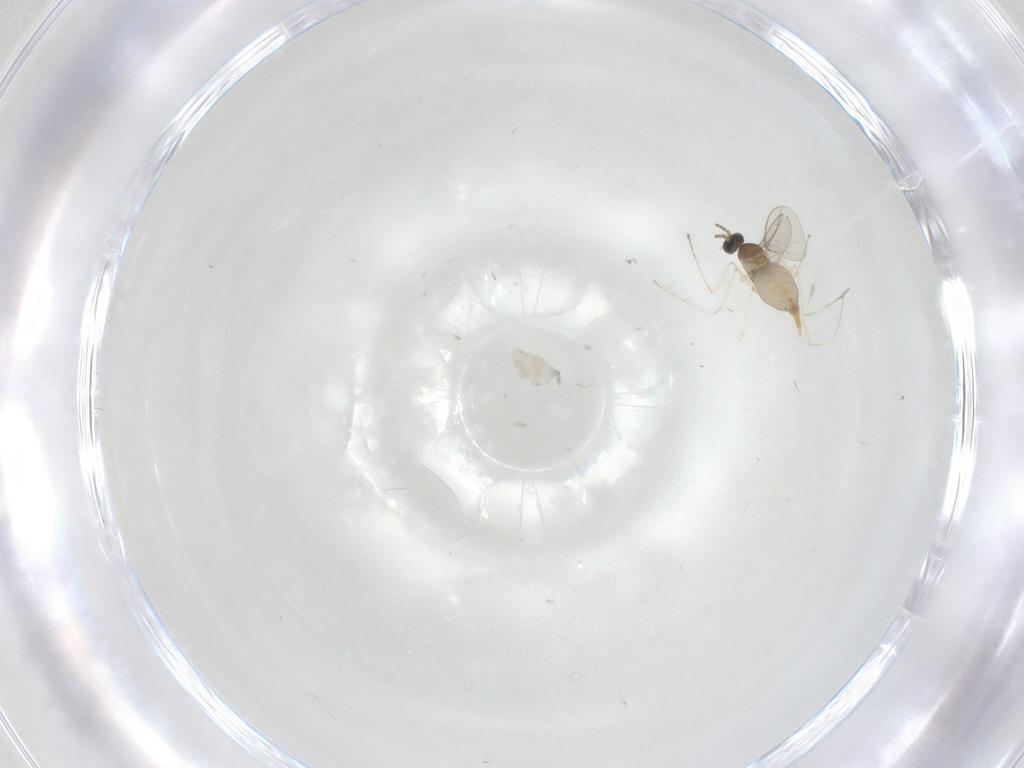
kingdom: Animalia
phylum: Arthropoda
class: Insecta
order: Diptera
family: Cecidomyiidae
